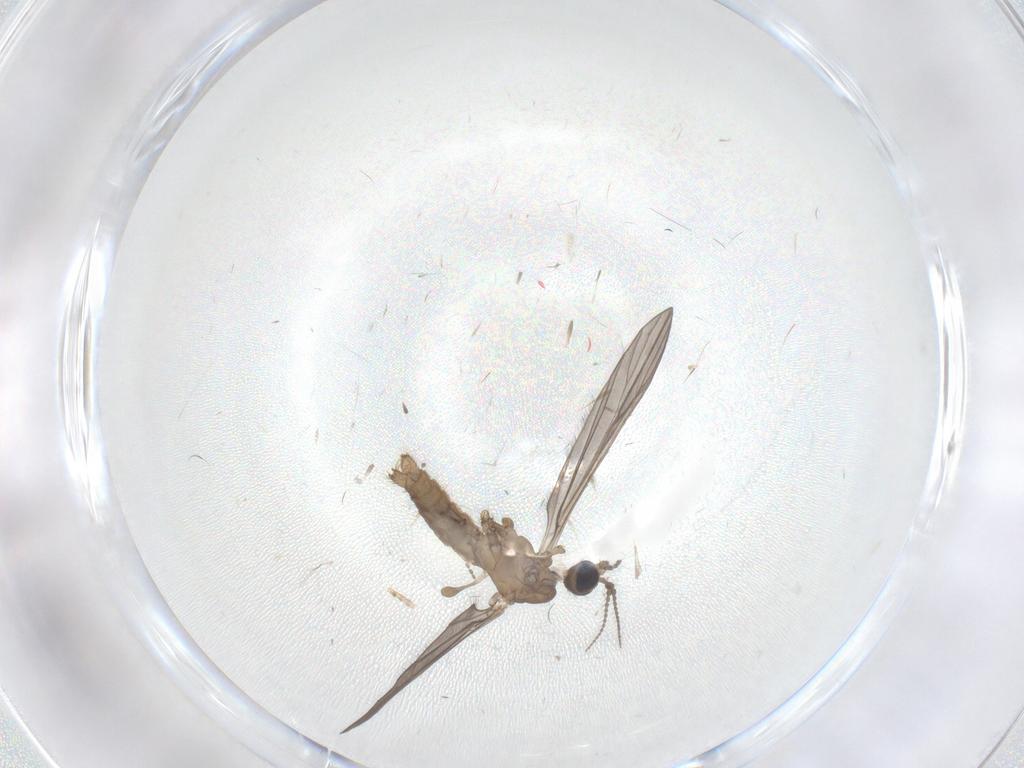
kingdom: Animalia
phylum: Arthropoda
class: Insecta
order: Diptera
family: Limoniidae
